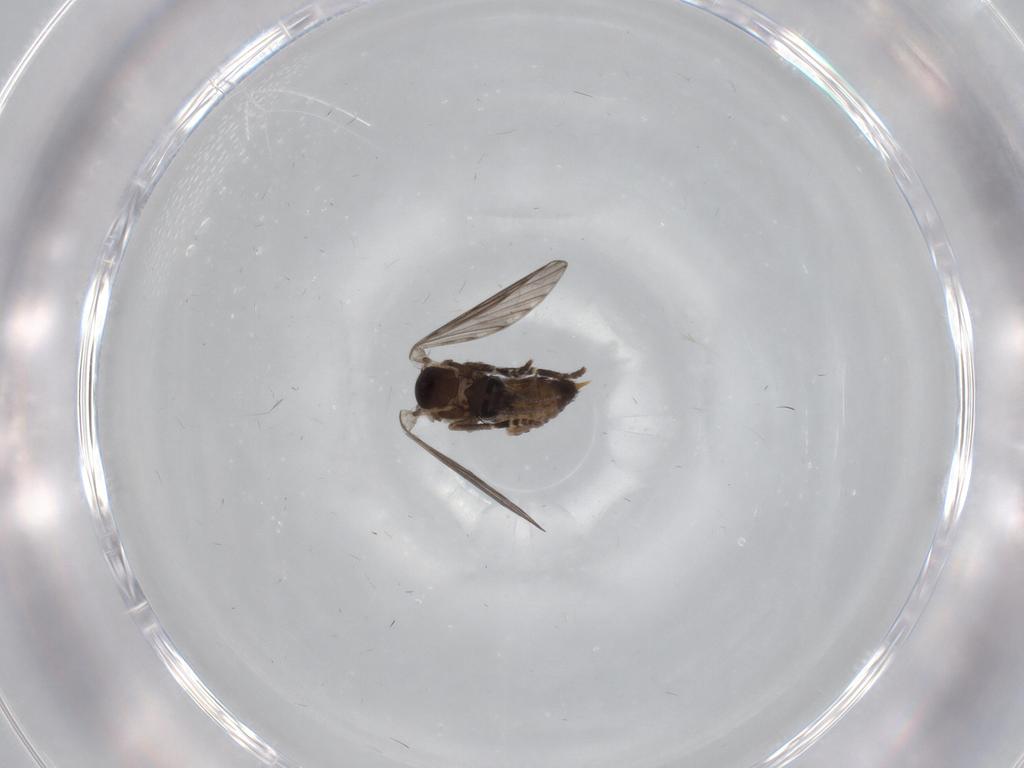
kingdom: Animalia
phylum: Arthropoda
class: Insecta
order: Diptera
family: Psychodidae
